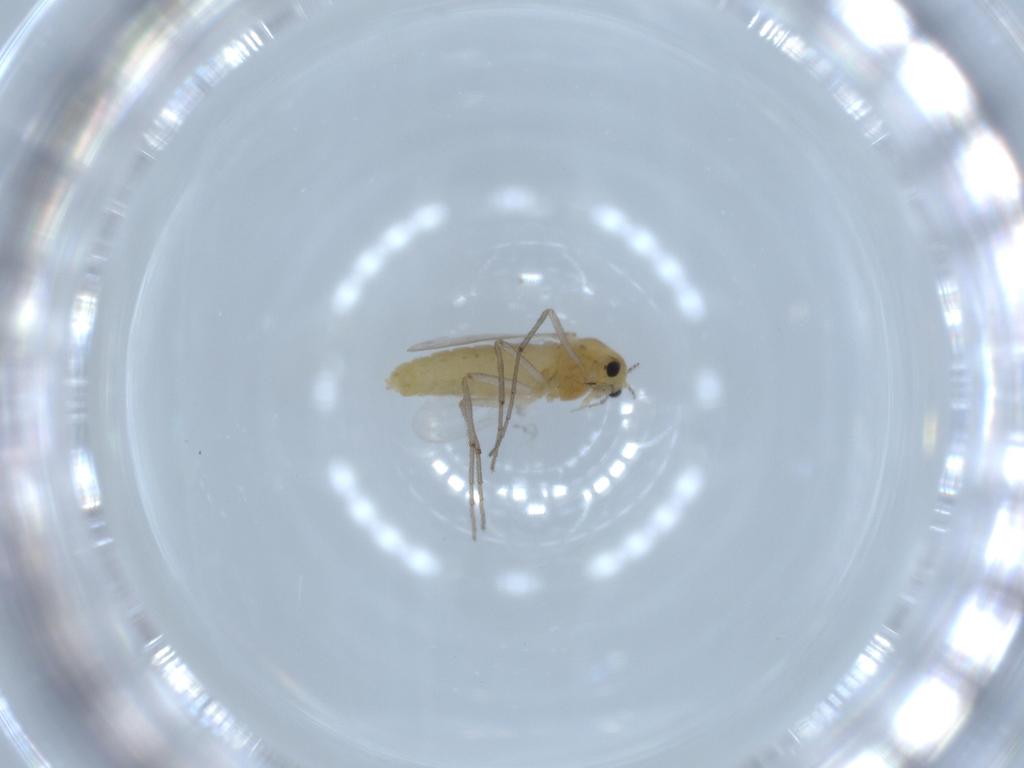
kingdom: Animalia
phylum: Arthropoda
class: Insecta
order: Diptera
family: Chironomidae
